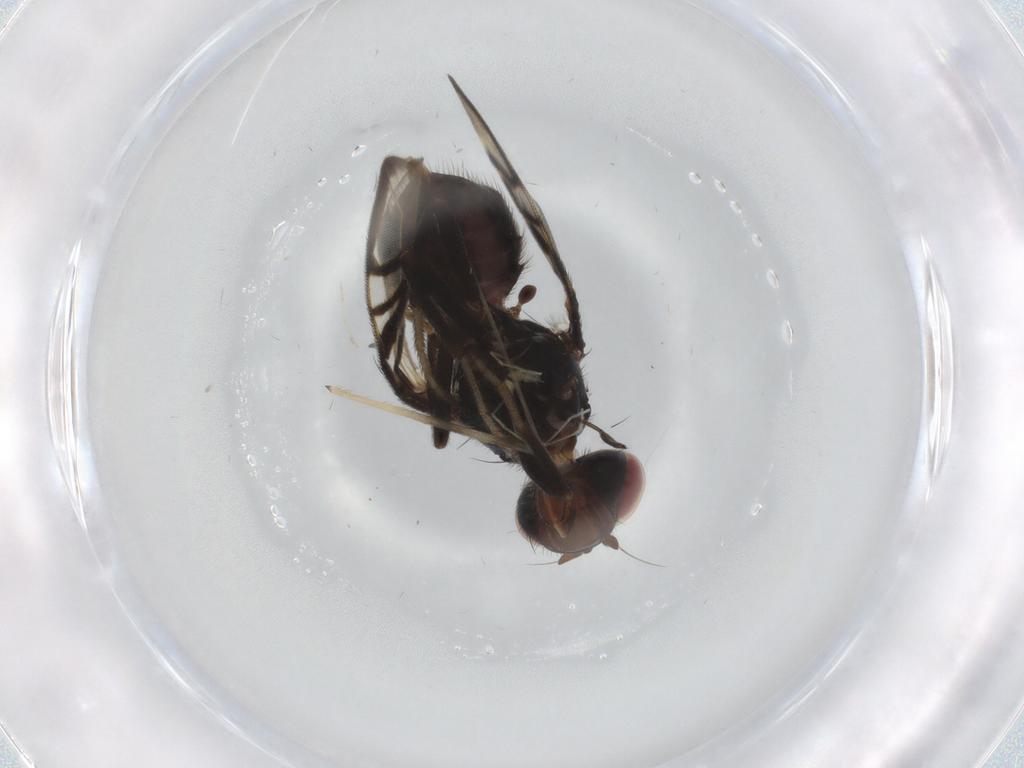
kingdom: Animalia
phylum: Arthropoda
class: Insecta
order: Diptera
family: Limoniidae
